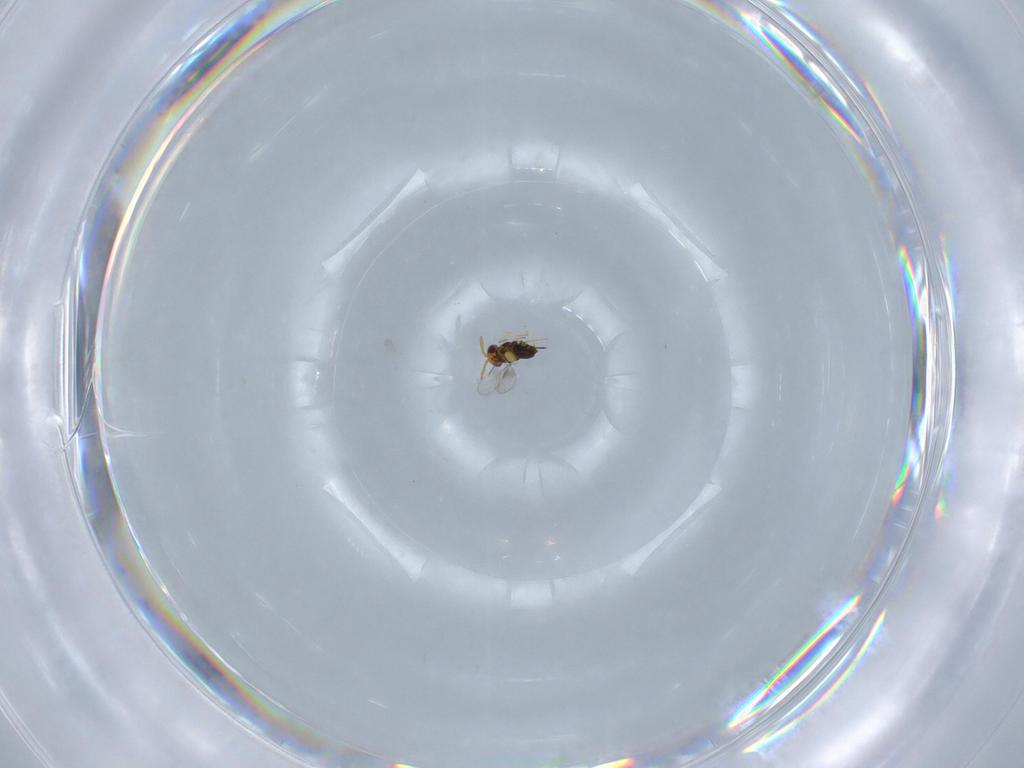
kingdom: Animalia
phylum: Arthropoda
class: Insecta
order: Hymenoptera
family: Aphelinidae
